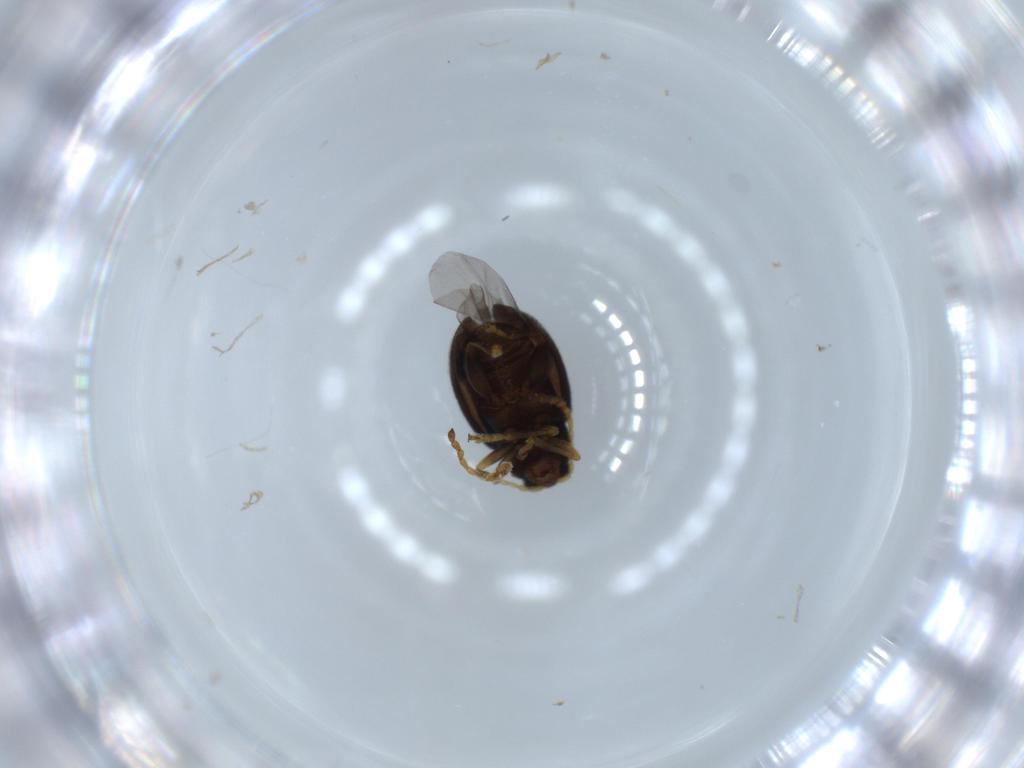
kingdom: Animalia
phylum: Arthropoda
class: Insecta
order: Coleoptera
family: Chrysomelidae
